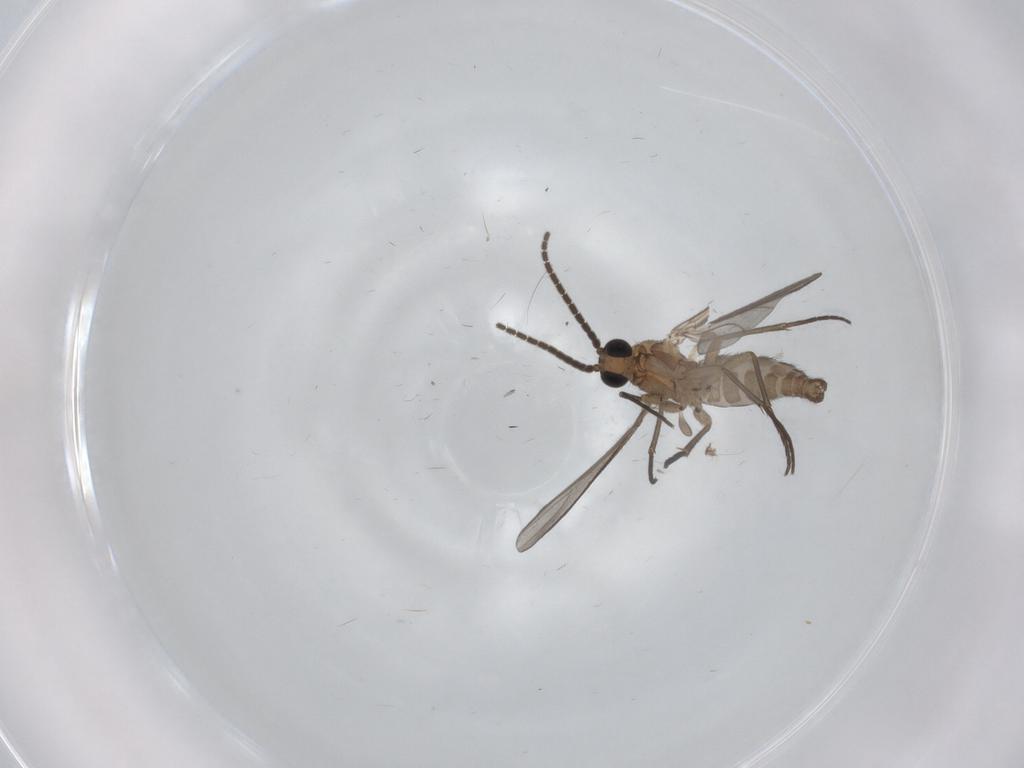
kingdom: Animalia
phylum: Arthropoda
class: Insecta
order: Diptera
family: Sciaridae
